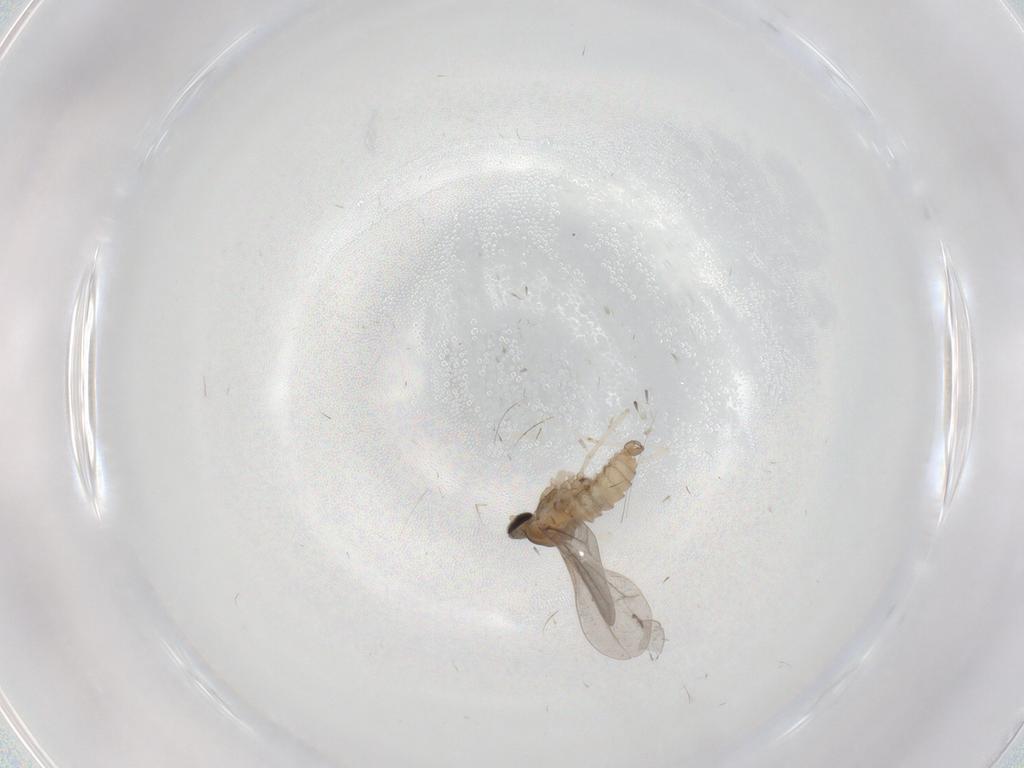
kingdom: Animalia
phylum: Arthropoda
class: Insecta
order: Diptera
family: Cecidomyiidae
